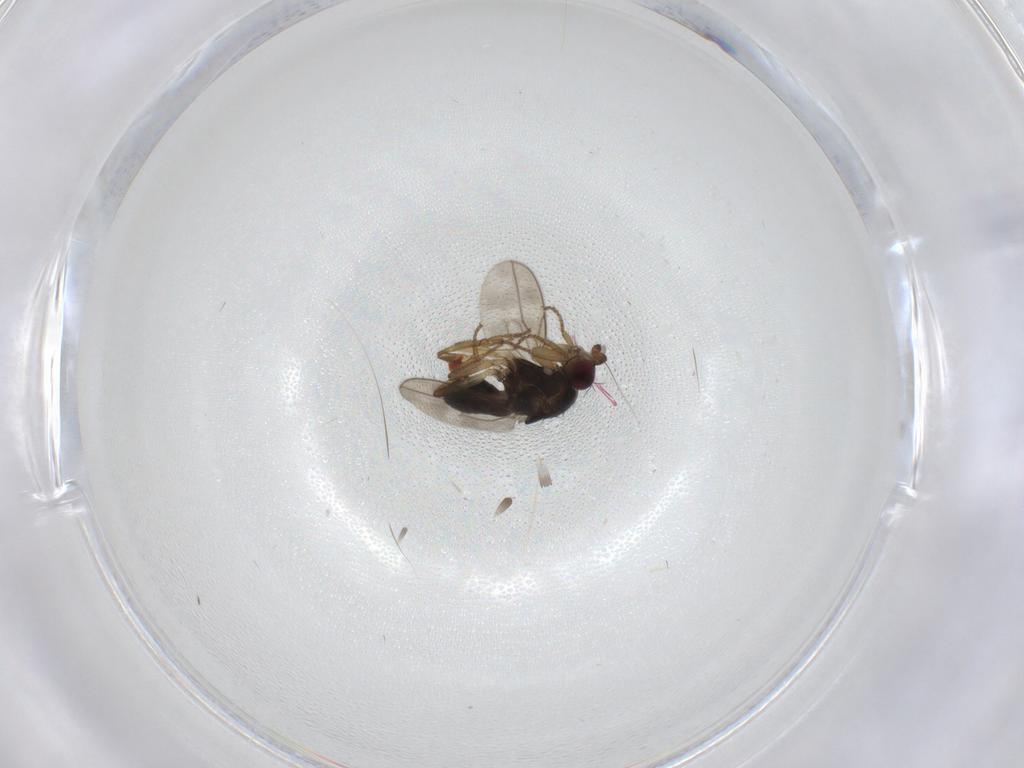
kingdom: Animalia
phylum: Arthropoda
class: Insecta
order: Diptera
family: Sphaeroceridae
